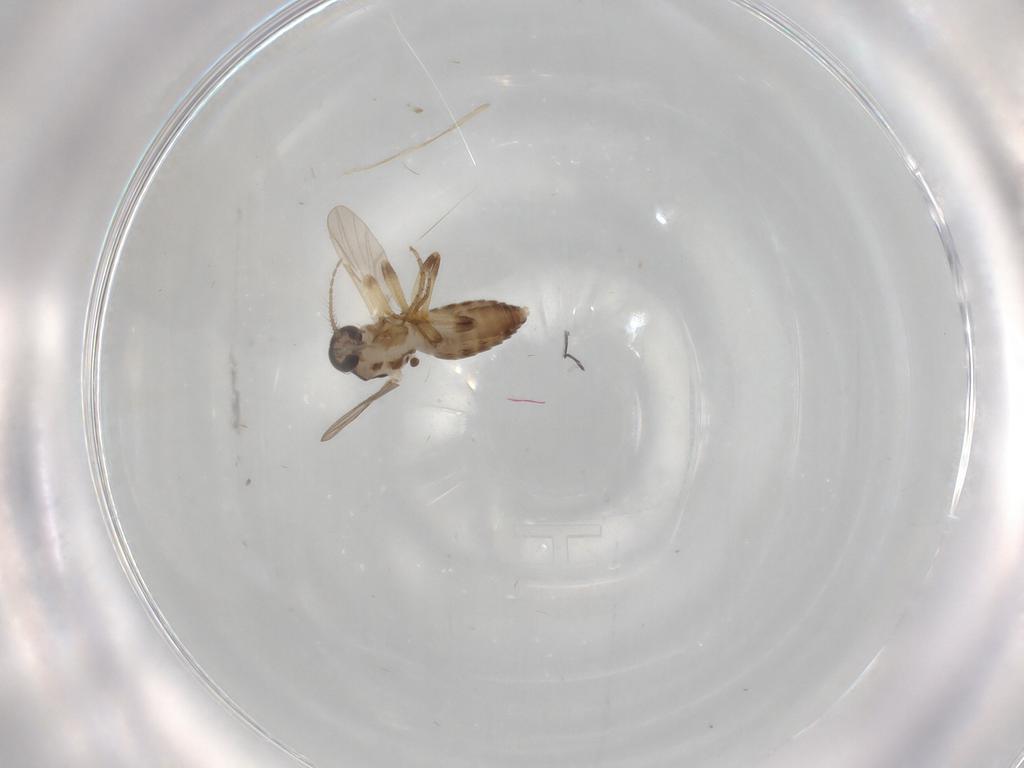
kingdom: Animalia
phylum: Arthropoda
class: Insecta
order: Diptera
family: Ceratopogonidae
